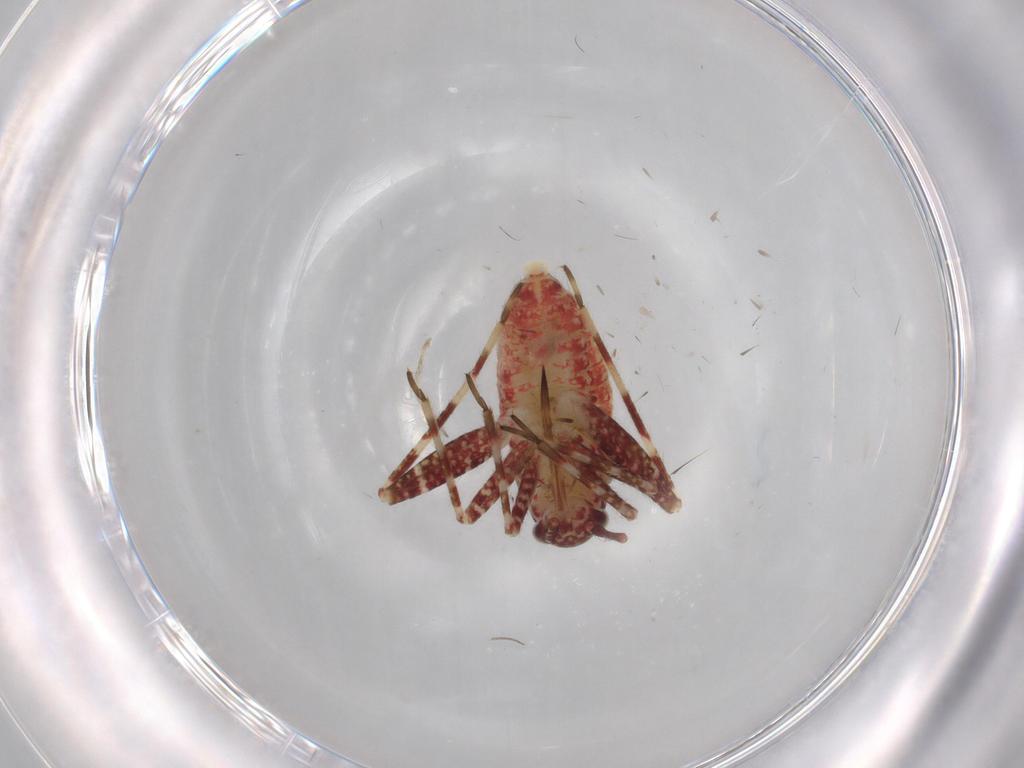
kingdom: Animalia
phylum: Arthropoda
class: Insecta
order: Hemiptera
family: Miridae
